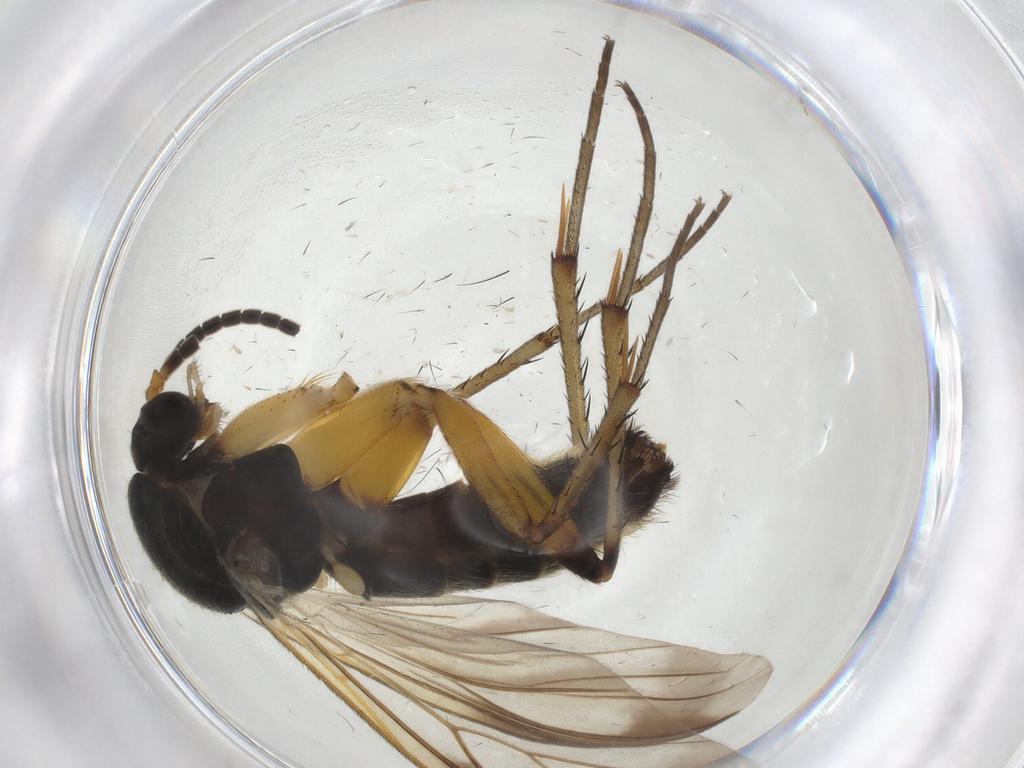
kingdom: Animalia
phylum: Arthropoda
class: Insecta
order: Diptera
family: Mycetophilidae
